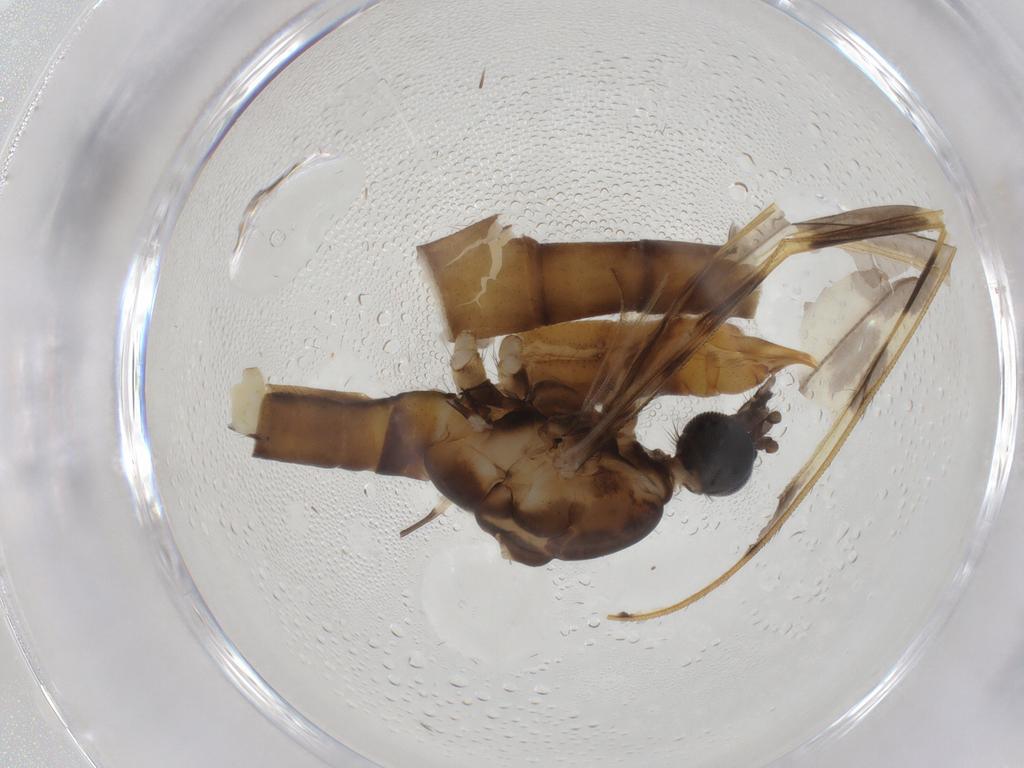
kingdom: Animalia
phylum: Arthropoda
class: Insecta
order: Diptera
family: Limoniidae
